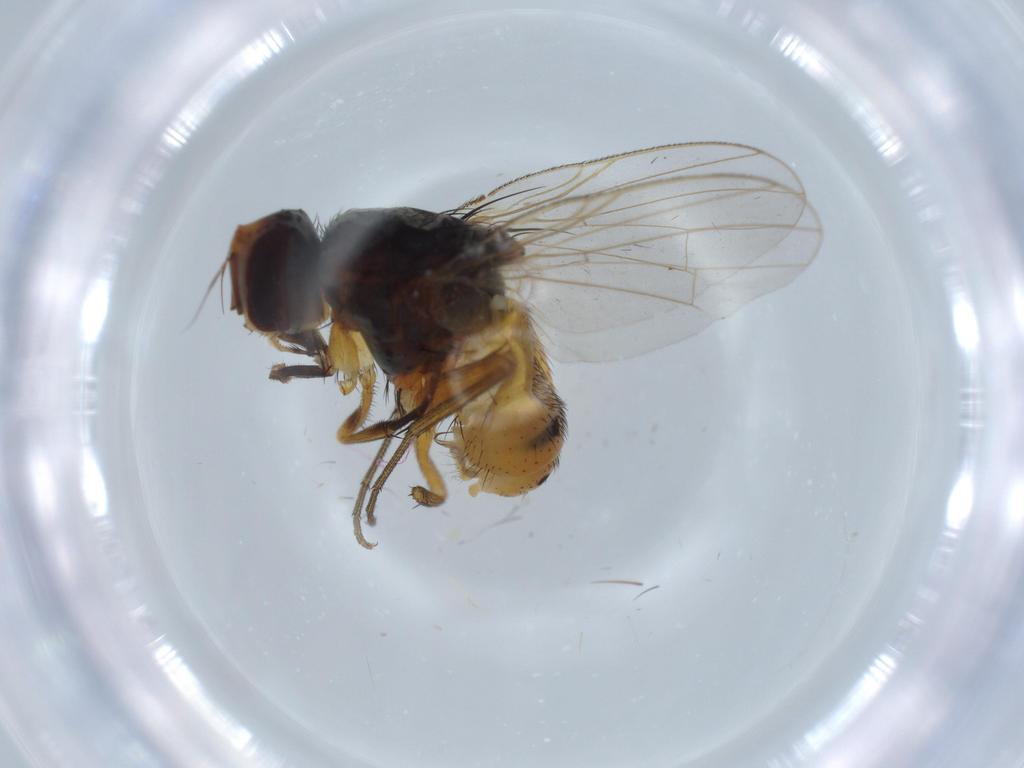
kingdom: Animalia
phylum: Arthropoda
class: Insecta
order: Diptera
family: Muscidae
